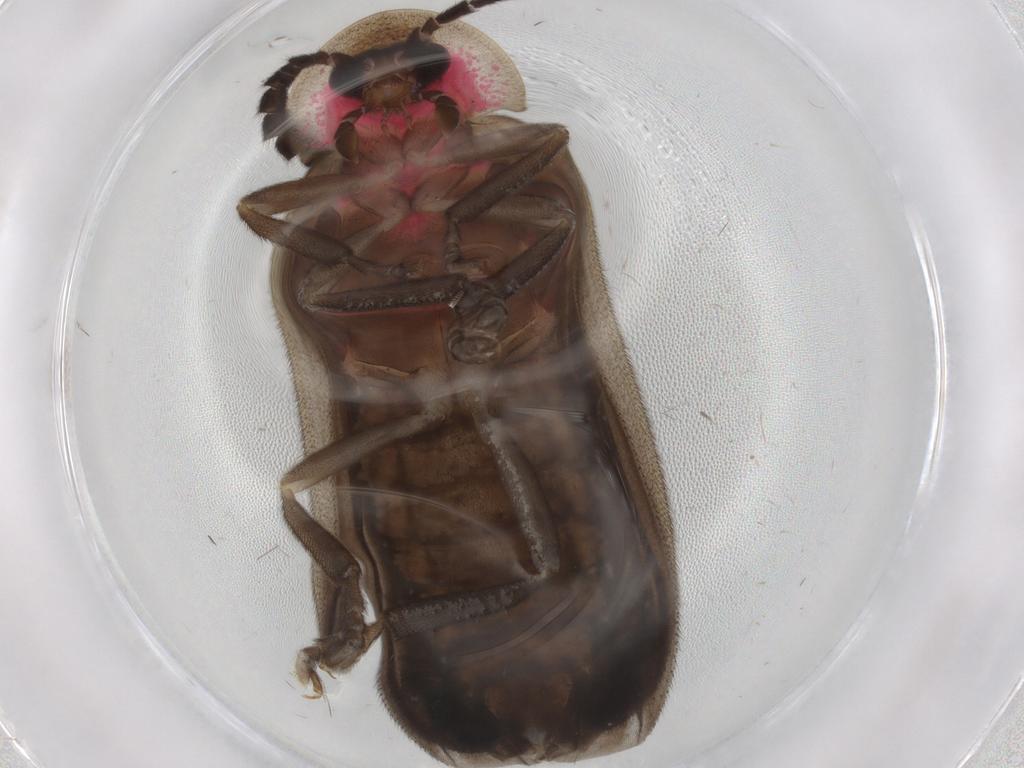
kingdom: Animalia
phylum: Arthropoda
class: Insecta
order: Coleoptera
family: Lampyridae
